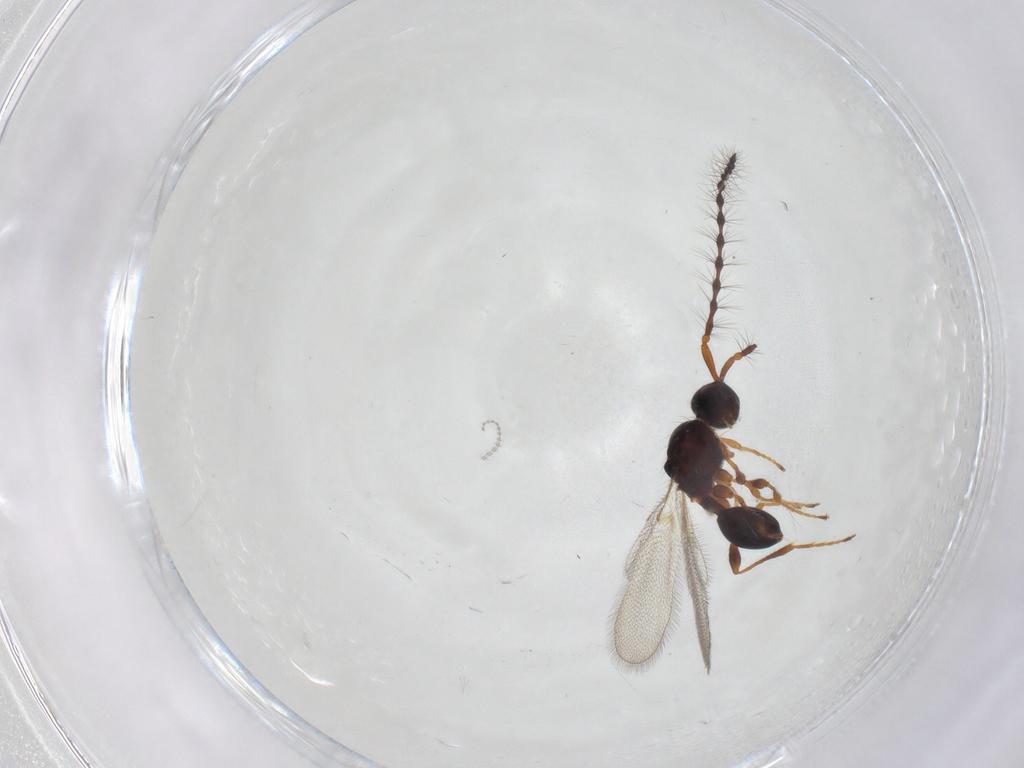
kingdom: Animalia
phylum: Arthropoda
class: Insecta
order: Hymenoptera
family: Diapriidae
